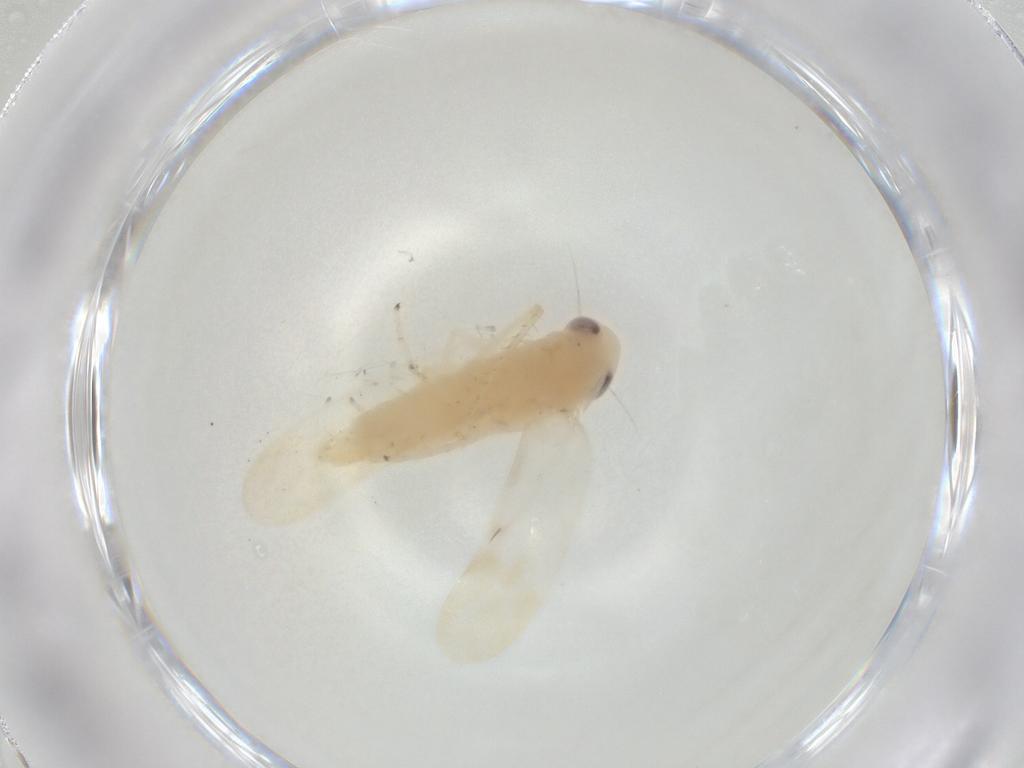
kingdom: Animalia
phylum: Arthropoda
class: Insecta
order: Hemiptera
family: Cicadellidae
